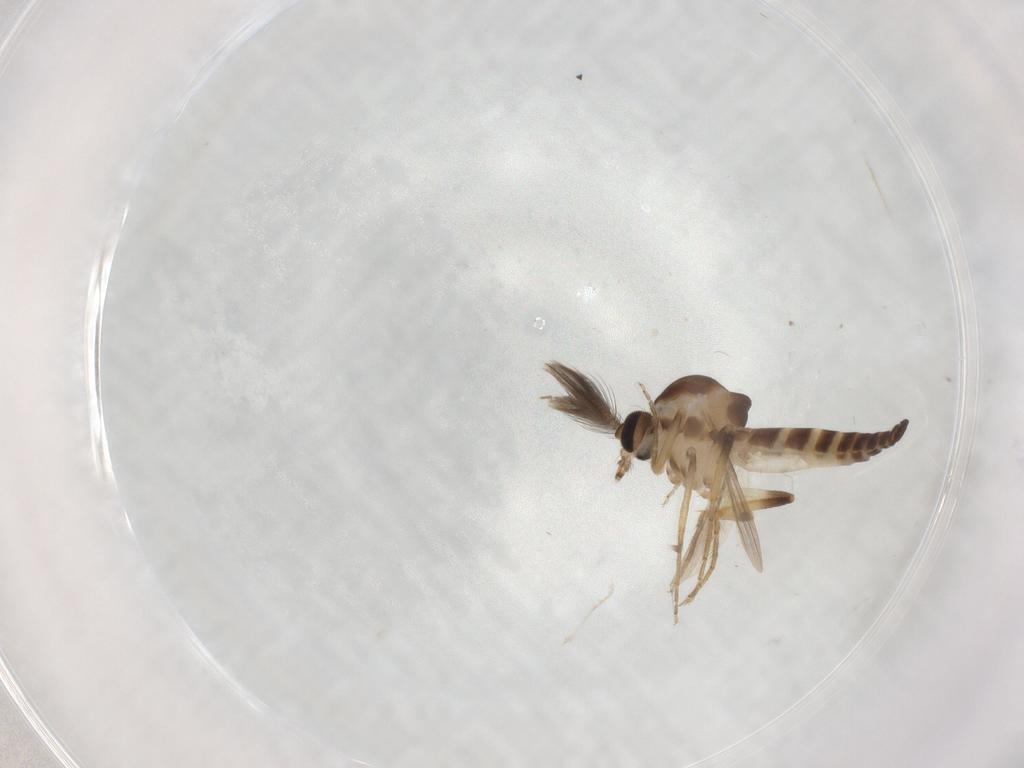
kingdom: Animalia
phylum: Arthropoda
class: Insecta
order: Diptera
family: Ceratopogonidae
